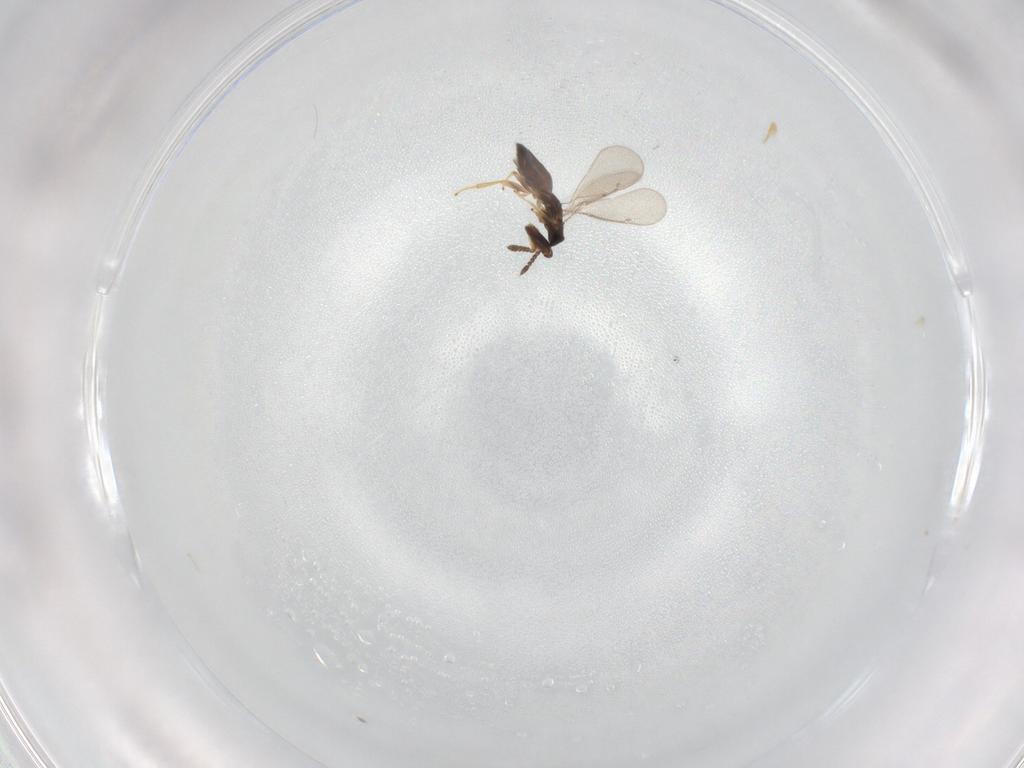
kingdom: Animalia
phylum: Arthropoda
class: Insecta
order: Hymenoptera
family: Eulophidae
